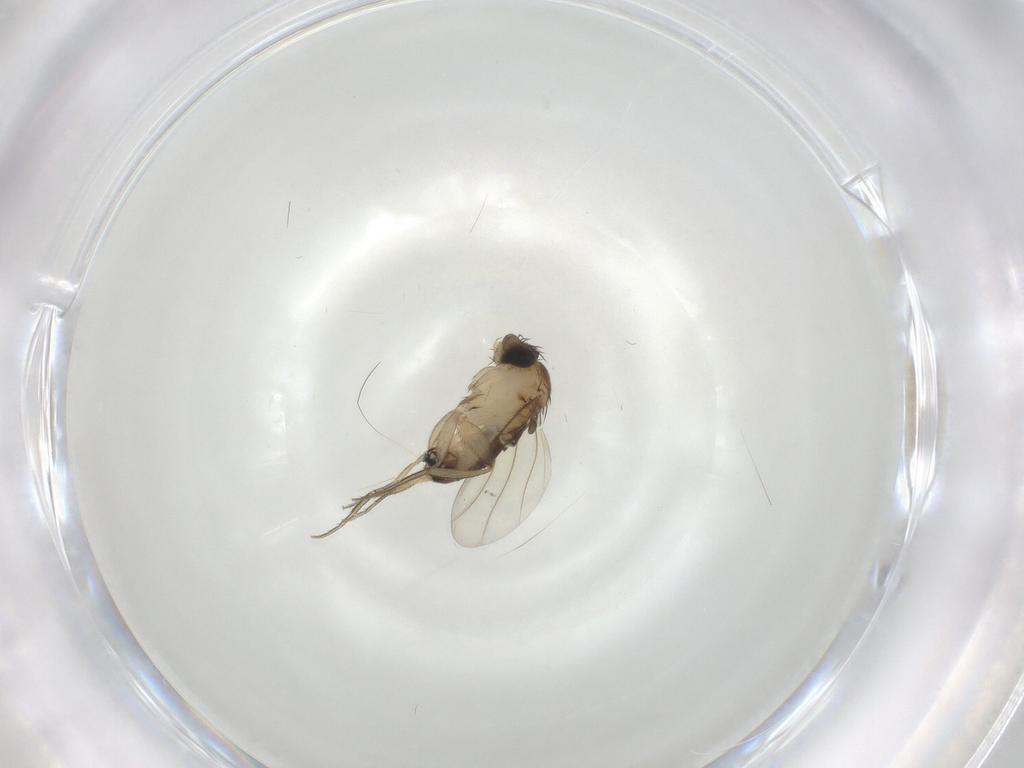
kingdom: Animalia
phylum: Arthropoda
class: Insecta
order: Diptera
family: Phoridae
